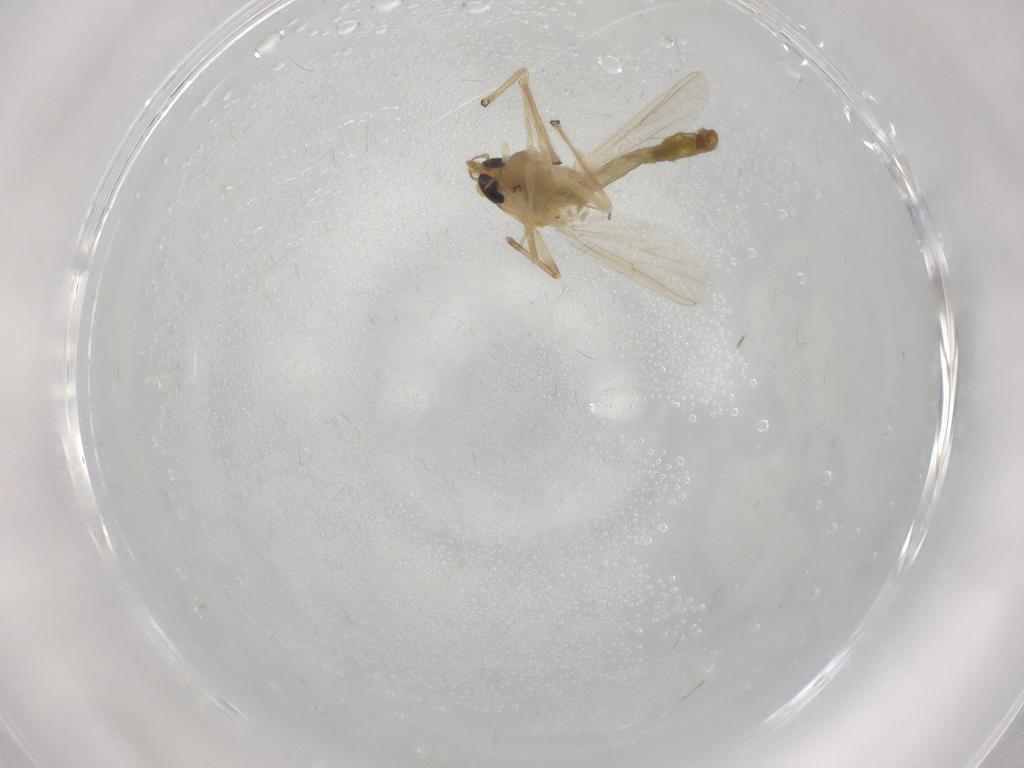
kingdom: Animalia
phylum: Arthropoda
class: Insecta
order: Diptera
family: Chironomidae
